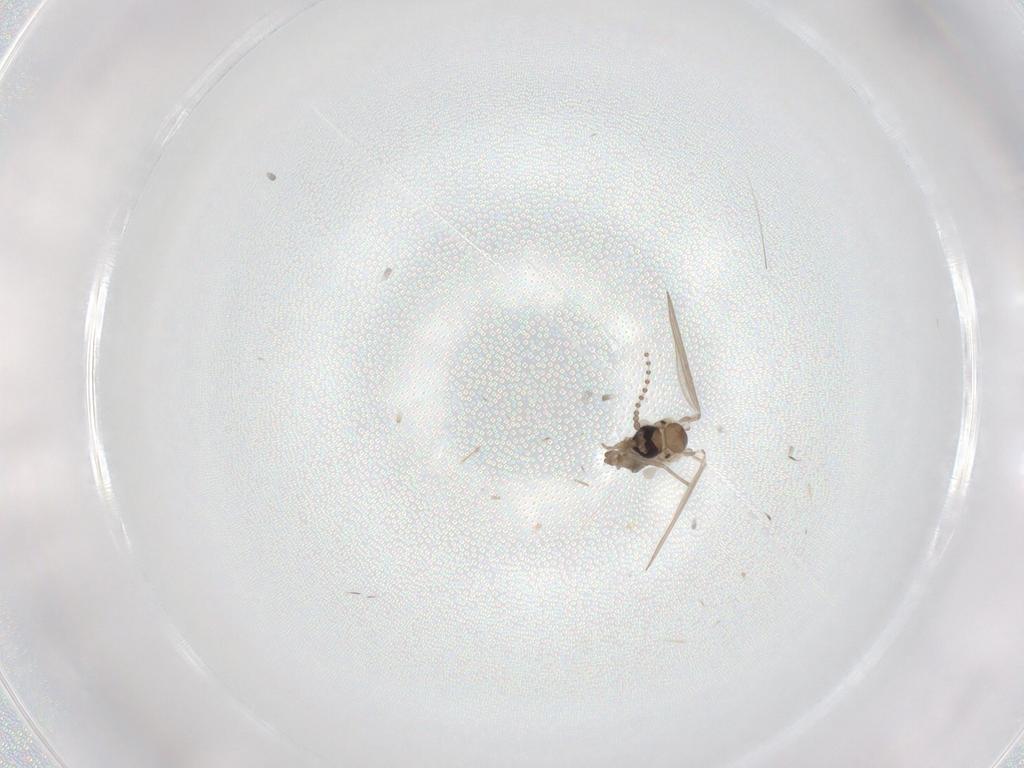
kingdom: Animalia
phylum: Arthropoda
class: Insecta
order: Diptera
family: Psychodidae
